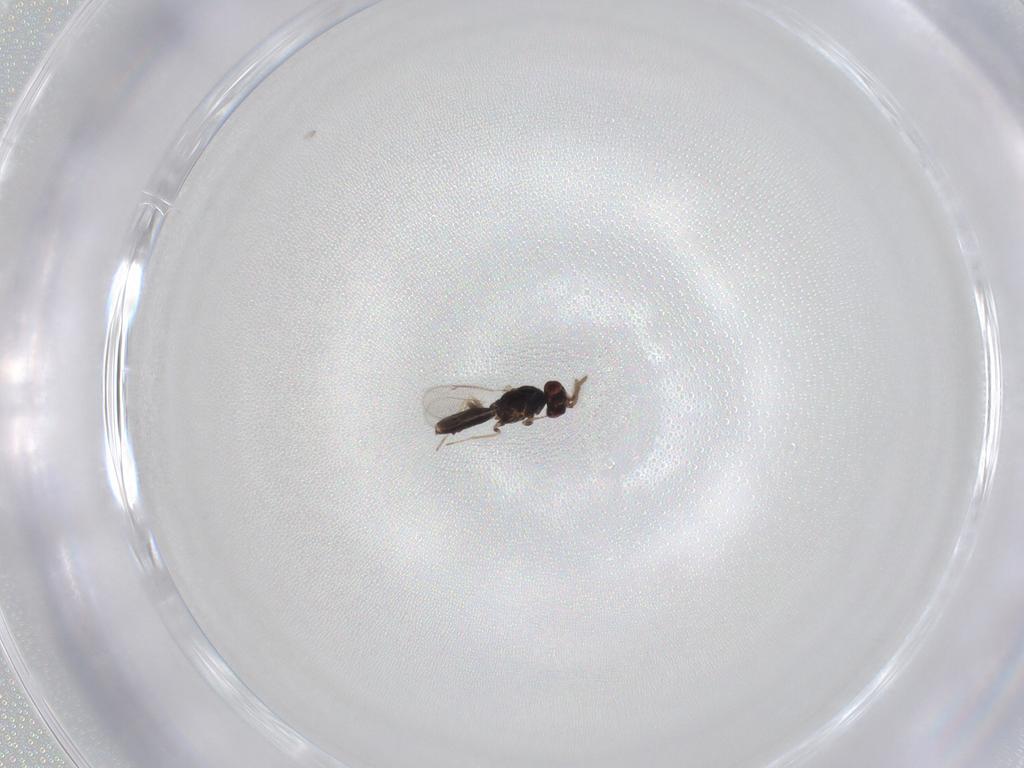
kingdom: Animalia
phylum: Arthropoda
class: Insecta
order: Hymenoptera
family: Eulophidae
